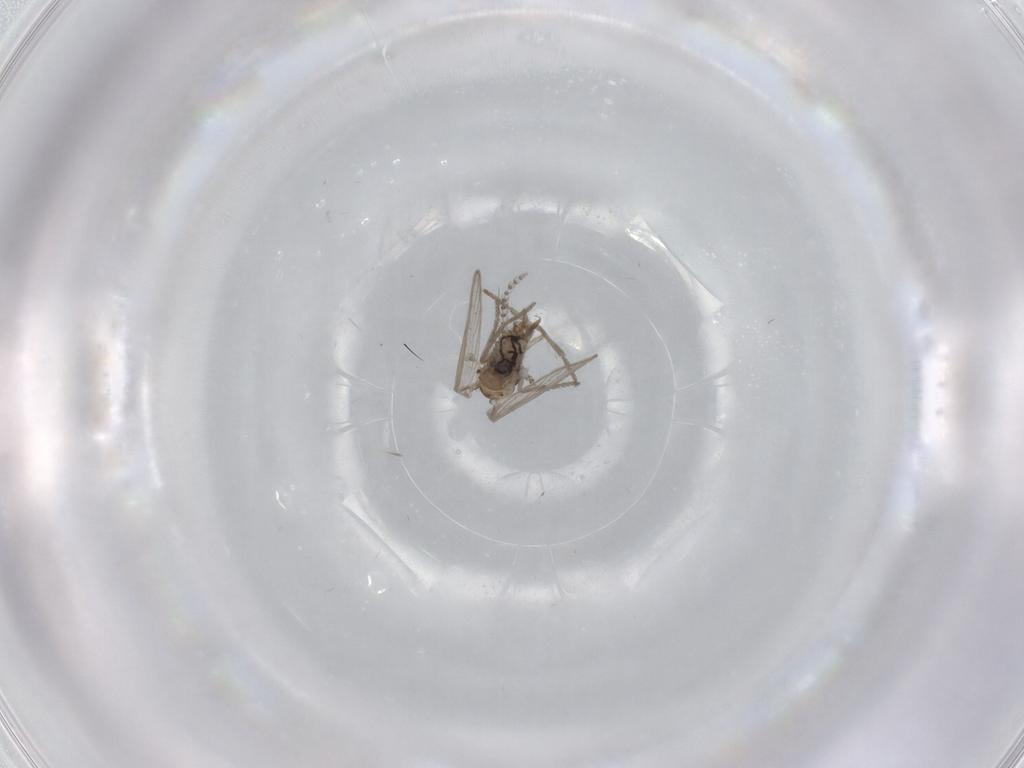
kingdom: Animalia
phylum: Arthropoda
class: Insecta
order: Diptera
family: Psychodidae
